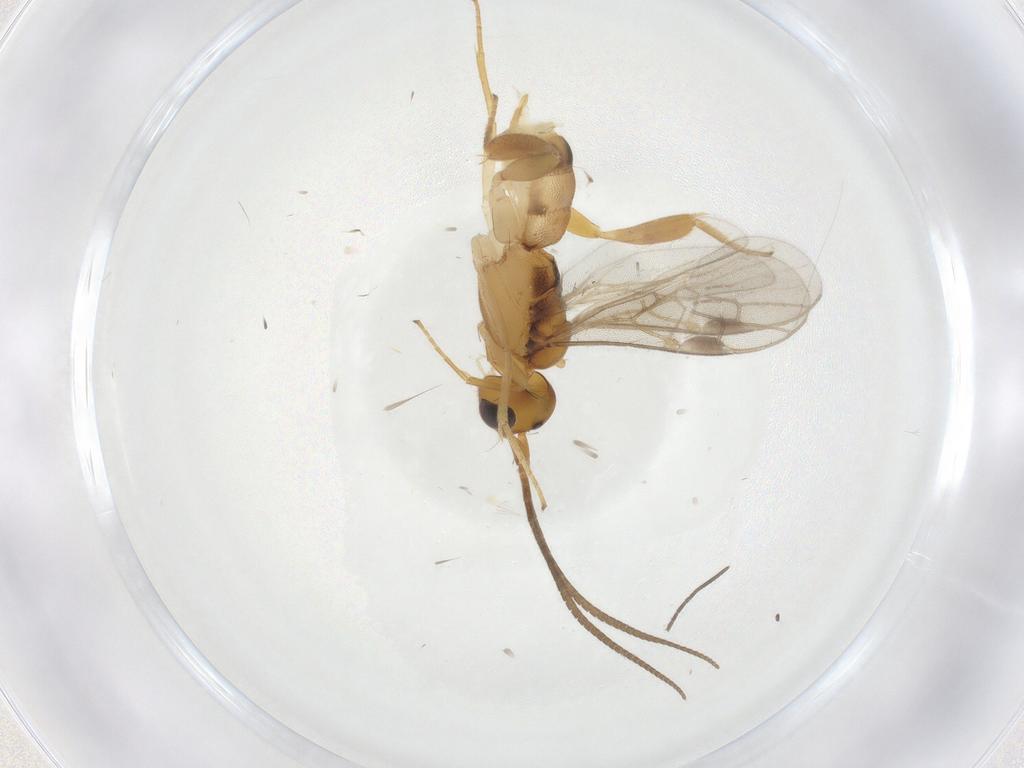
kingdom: Animalia
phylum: Arthropoda
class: Insecta
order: Hymenoptera
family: Braconidae
